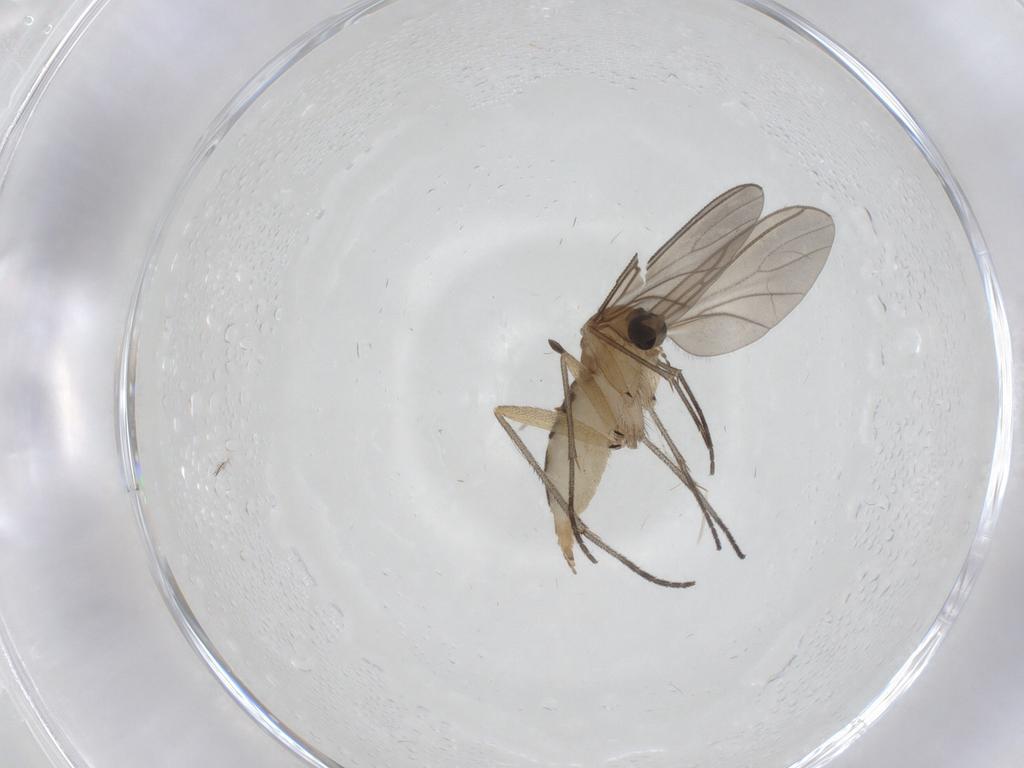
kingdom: Animalia
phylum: Arthropoda
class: Insecta
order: Diptera
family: Sciaridae
